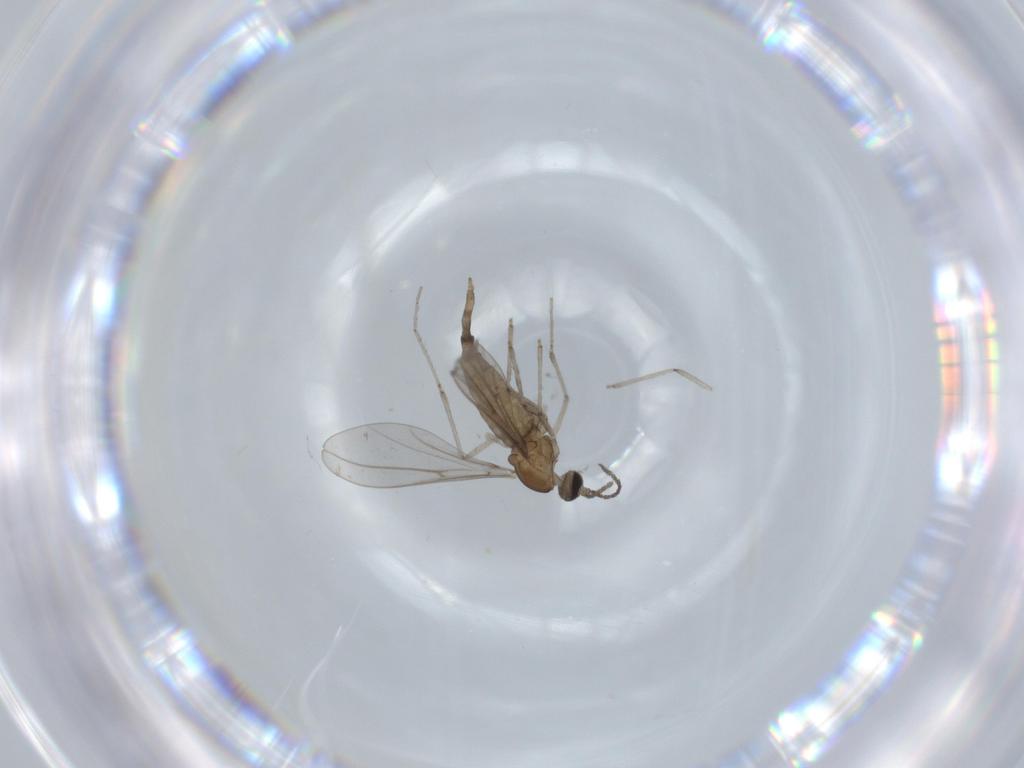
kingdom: Animalia
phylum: Arthropoda
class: Insecta
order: Diptera
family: Cecidomyiidae
